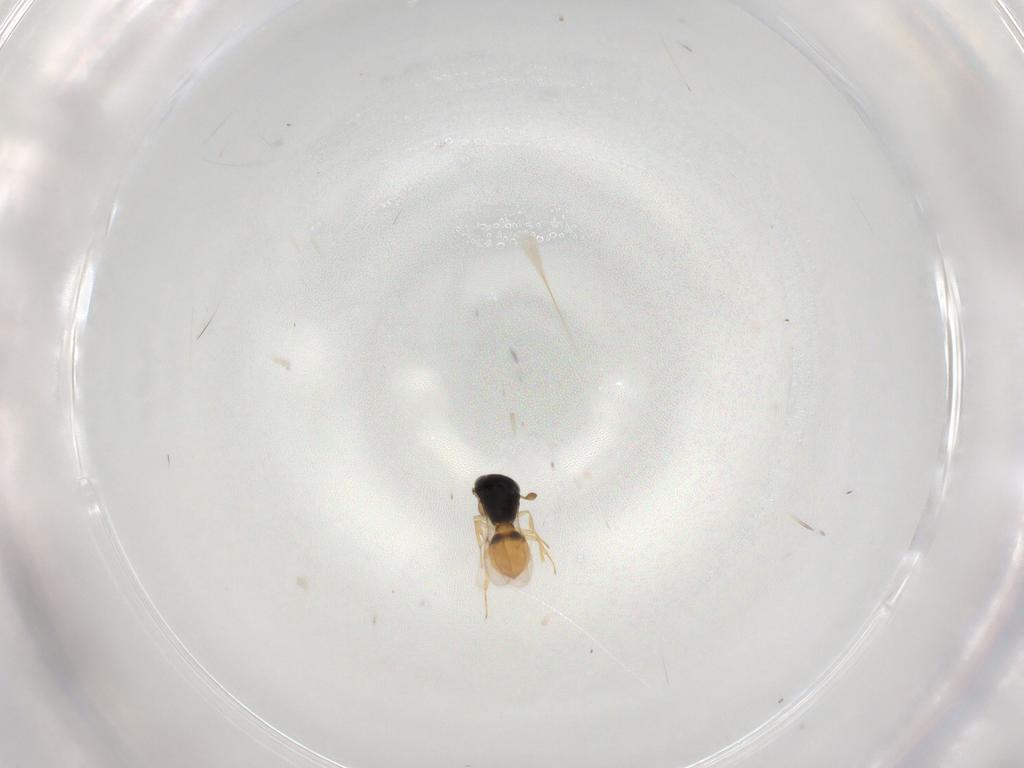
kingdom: Animalia
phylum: Arthropoda
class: Insecta
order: Hymenoptera
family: Scelionidae
